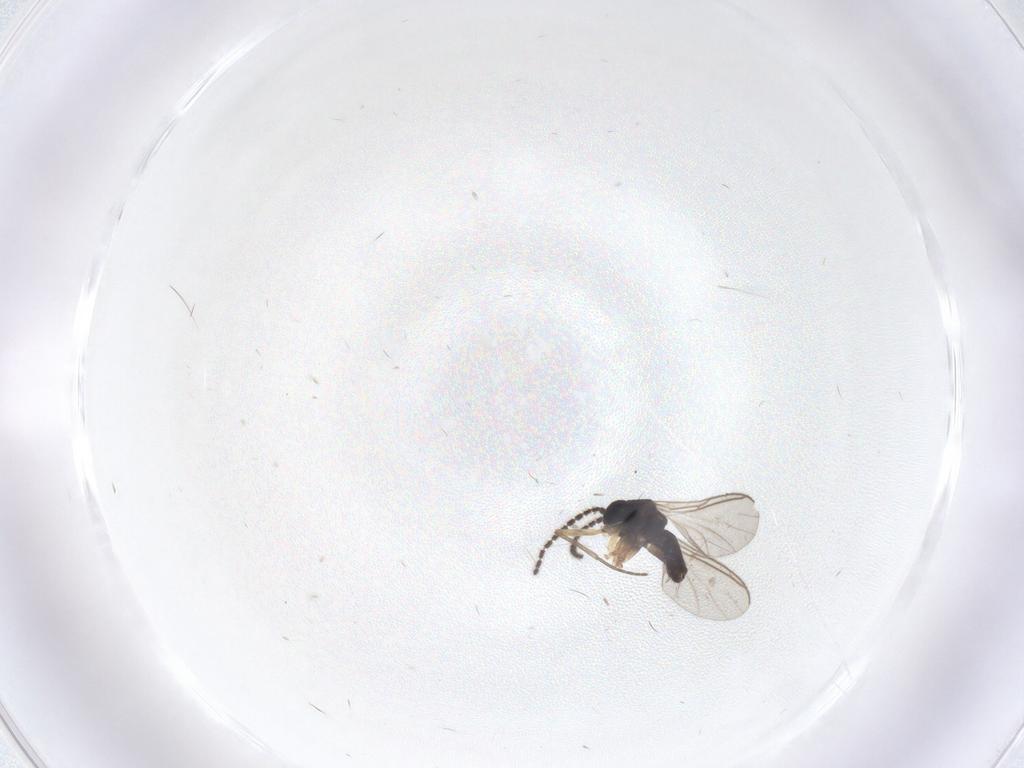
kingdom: Animalia
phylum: Arthropoda
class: Insecta
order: Diptera
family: Sciaridae
